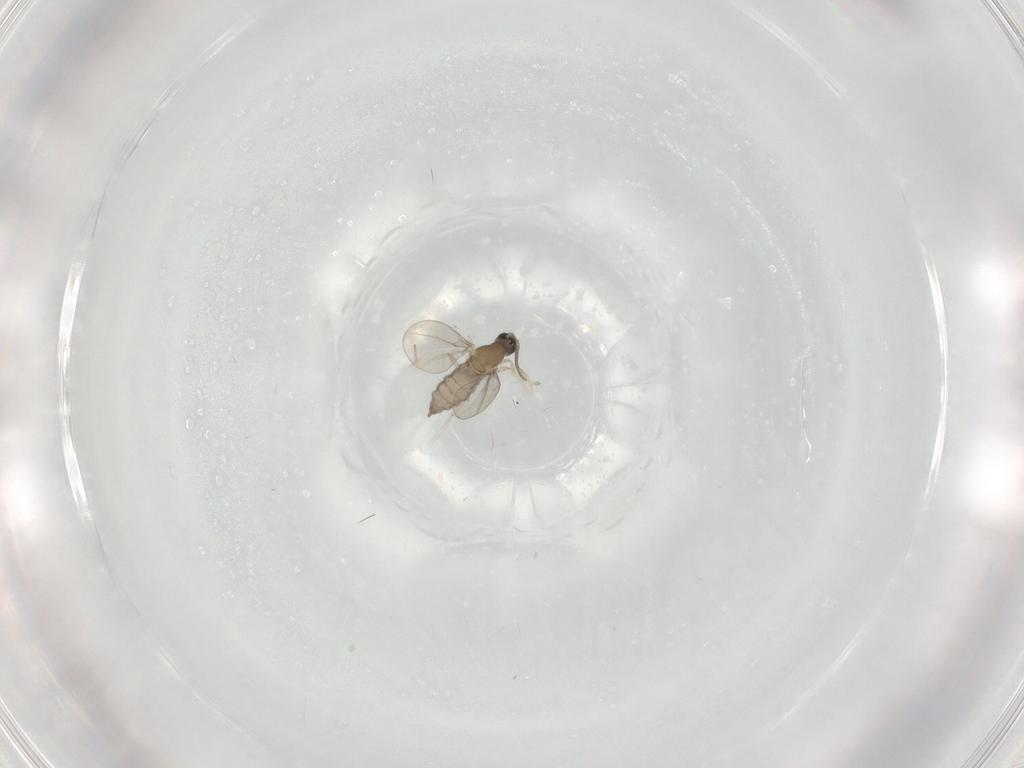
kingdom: Animalia
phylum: Arthropoda
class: Insecta
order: Diptera
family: Cecidomyiidae
